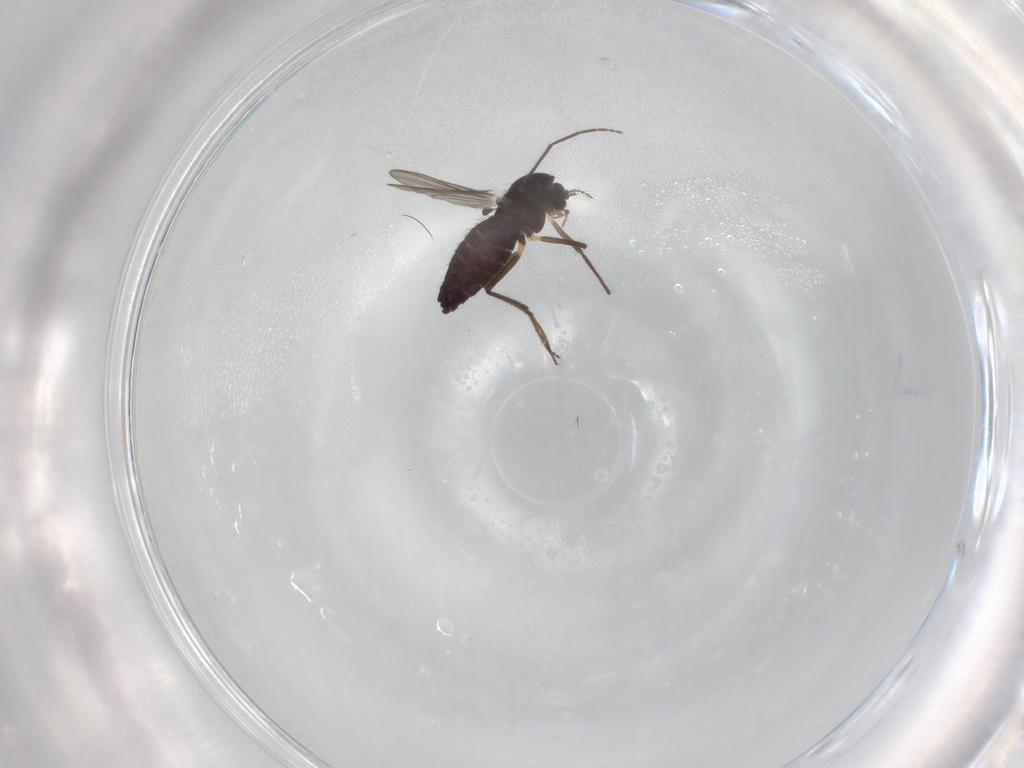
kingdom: Animalia
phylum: Arthropoda
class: Insecta
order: Diptera
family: Chironomidae
